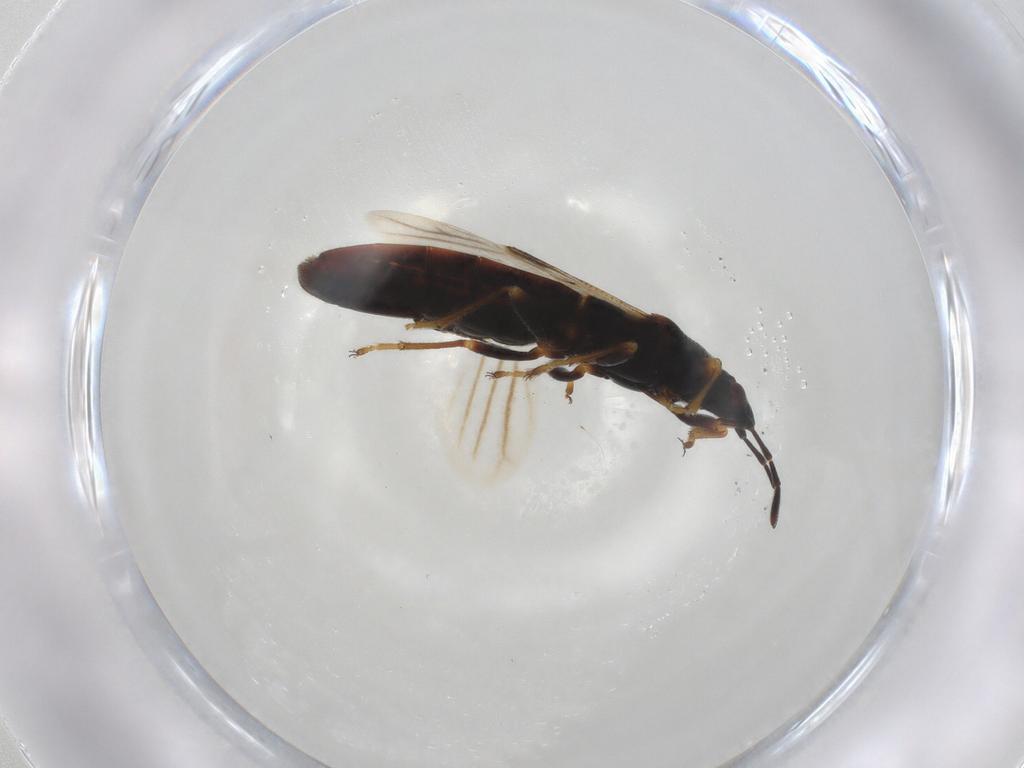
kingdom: Animalia
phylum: Arthropoda
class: Insecta
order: Hemiptera
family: Blissidae
